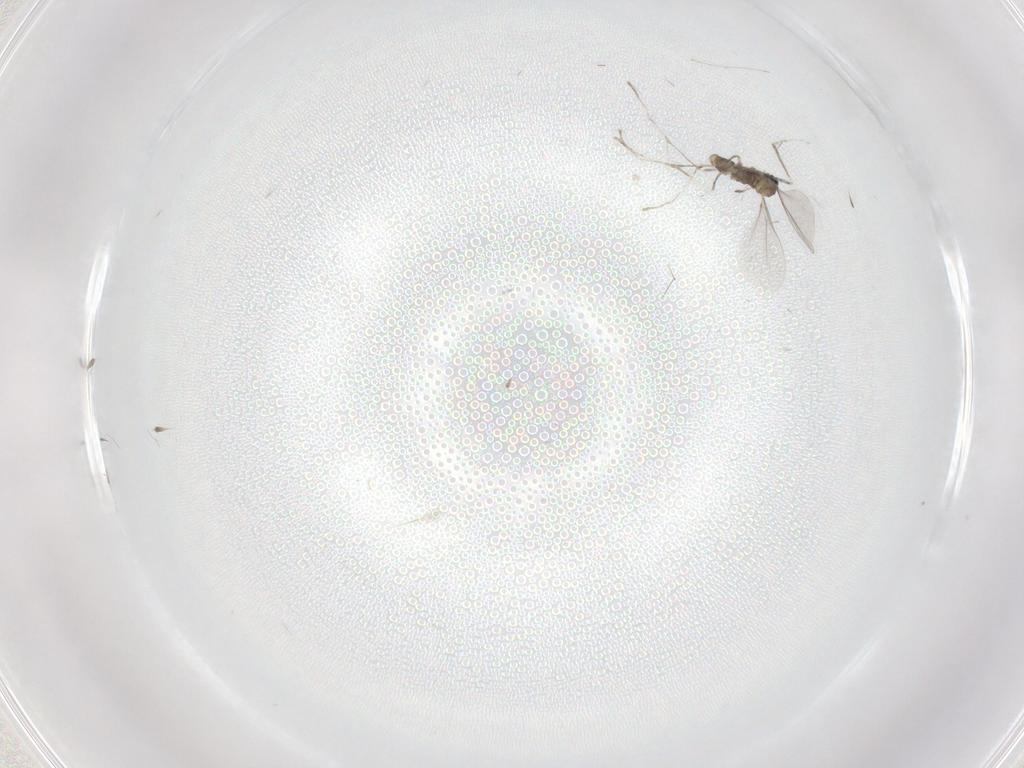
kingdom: Animalia
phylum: Arthropoda
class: Insecta
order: Diptera
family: Cecidomyiidae
